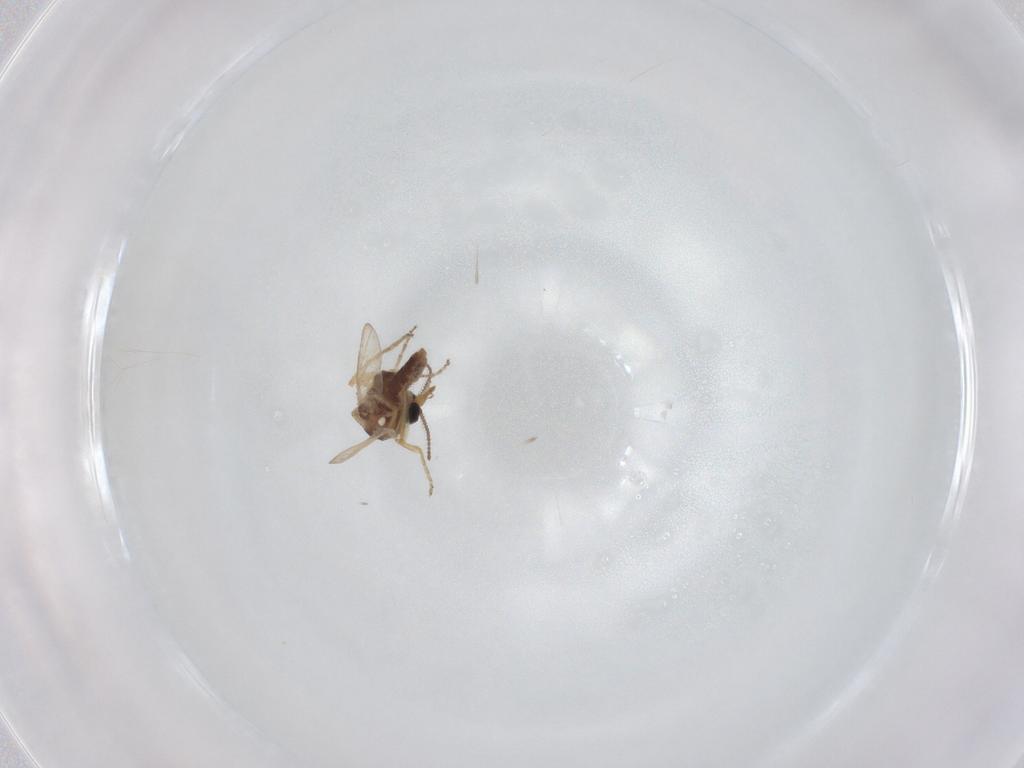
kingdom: Animalia
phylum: Arthropoda
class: Insecta
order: Diptera
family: Ceratopogonidae
